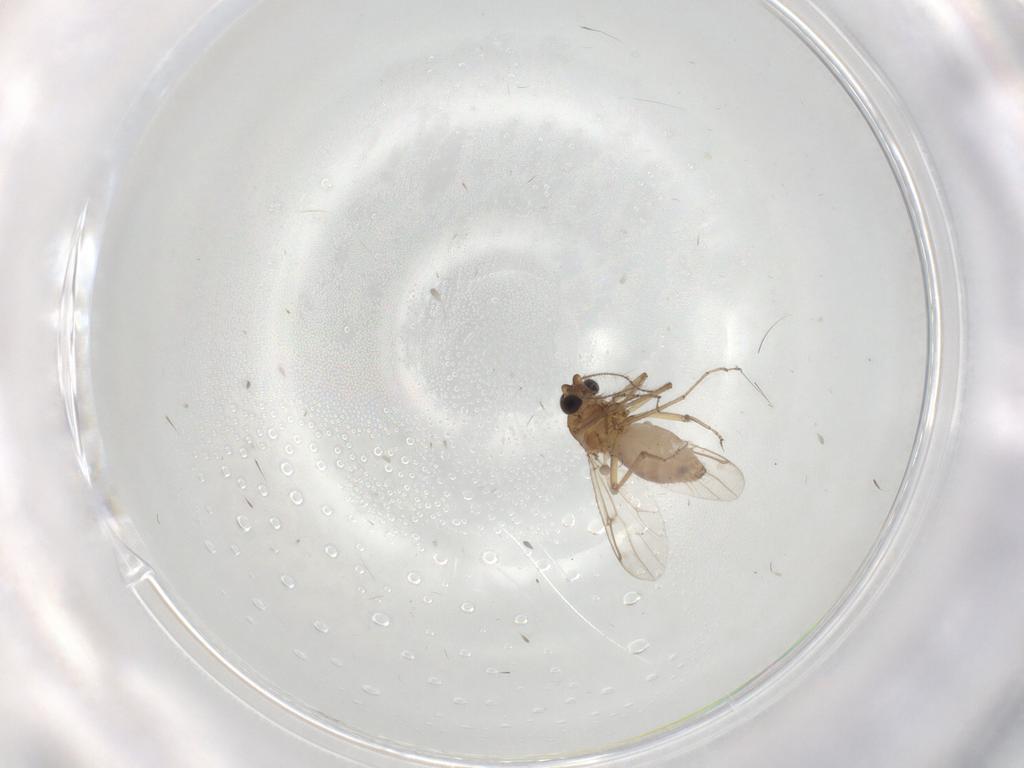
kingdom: Animalia
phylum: Arthropoda
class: Insecta
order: Diptera
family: Ceratopogonidae
